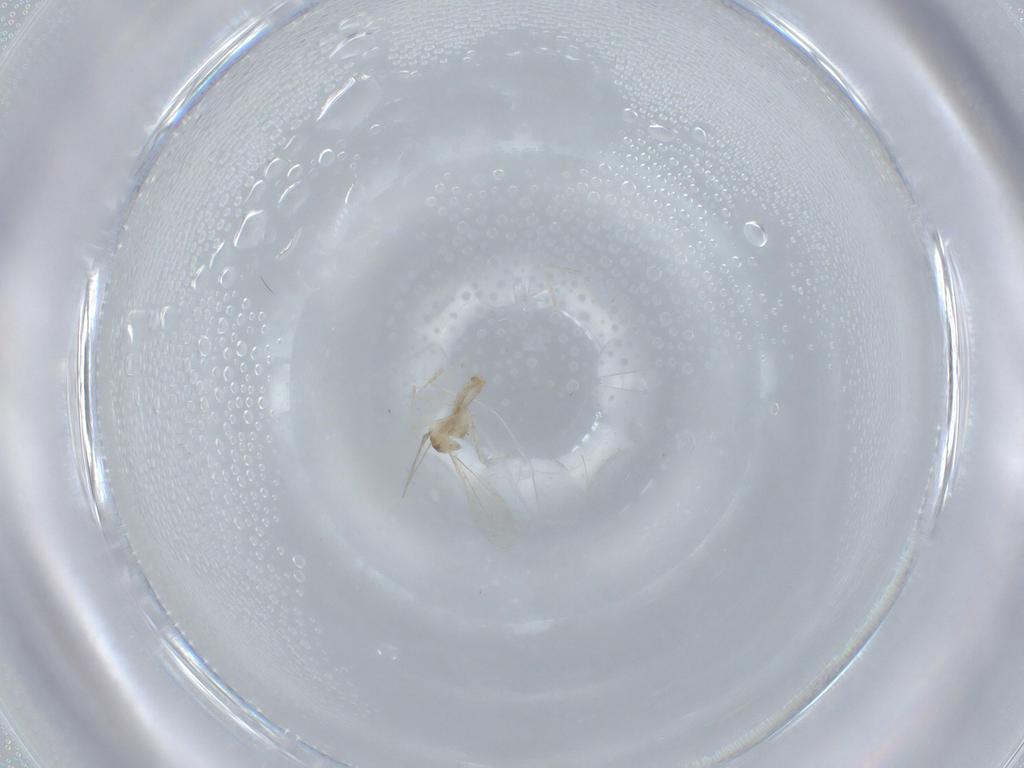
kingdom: Animalia
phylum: Arthropoda
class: Insecta
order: Diptera
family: Cecidomyiidae
